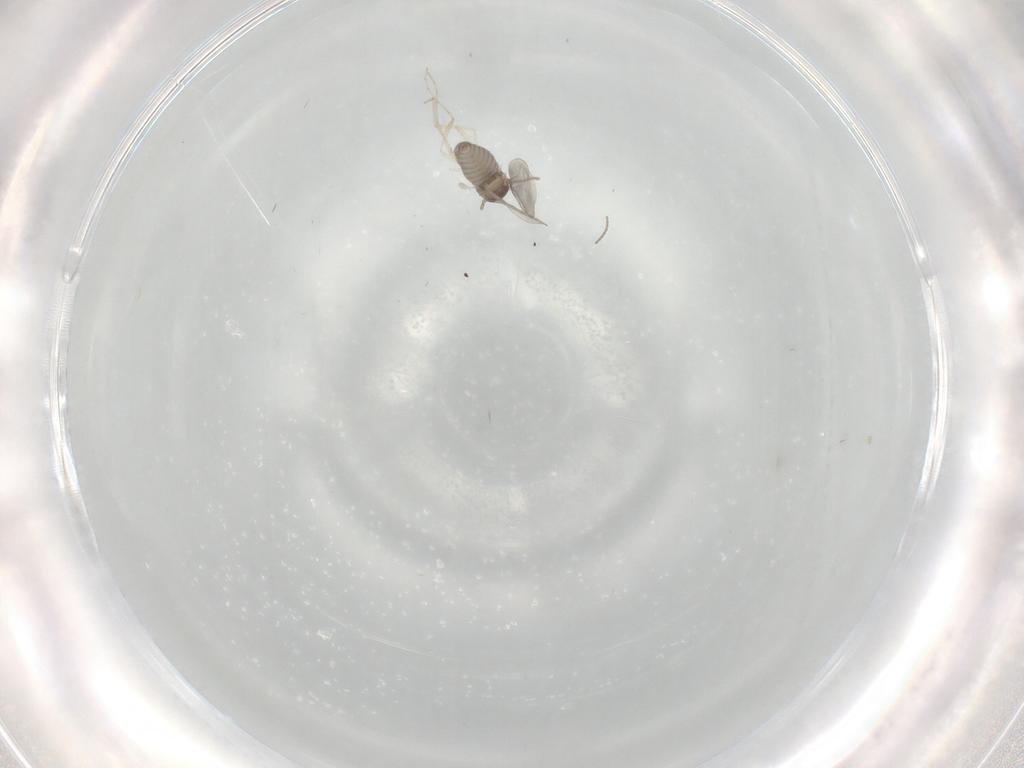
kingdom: Animalia
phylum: Arthropoda
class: Insecta
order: Diptera
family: Cecidomyiidae
